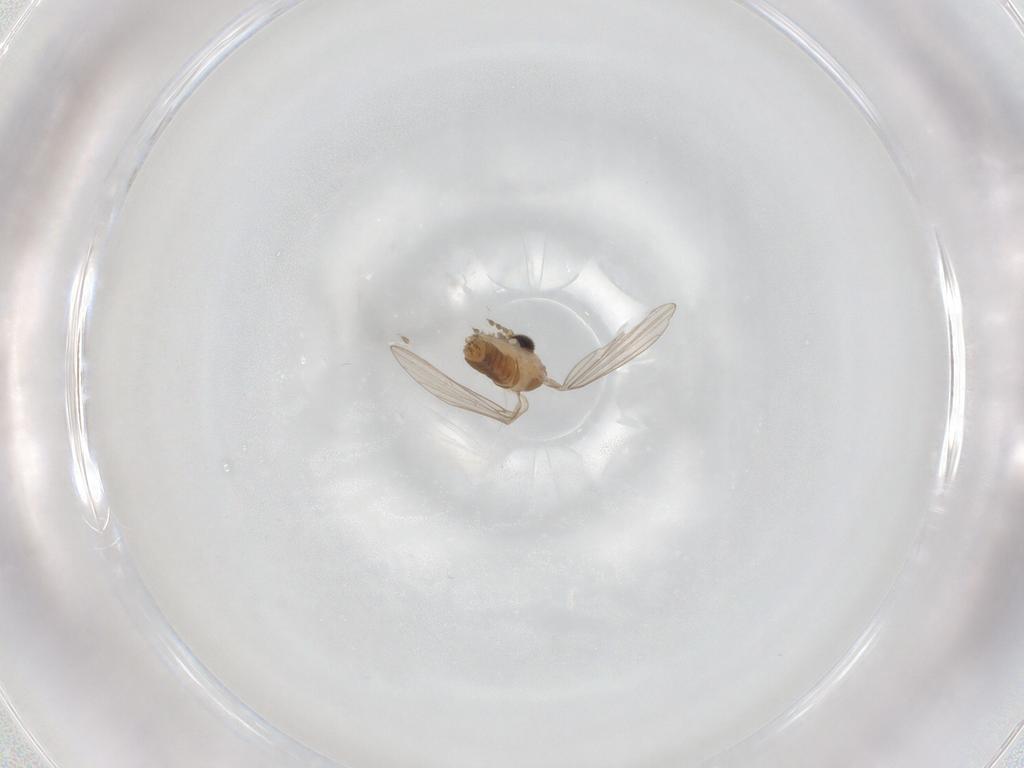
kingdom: Animalia
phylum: Arthropoda
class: Insecta
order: Diptera
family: Psychodidae
